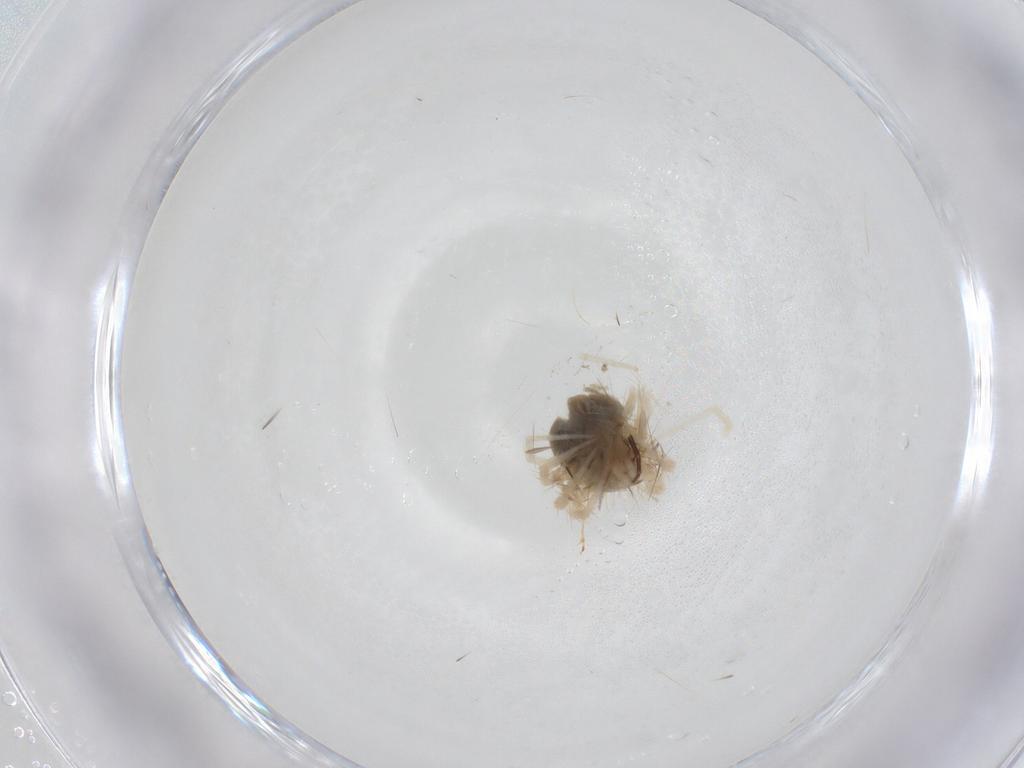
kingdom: Animalia
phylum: Arthropoda
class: Arachnida
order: Trombidiformes
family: Anystidae
